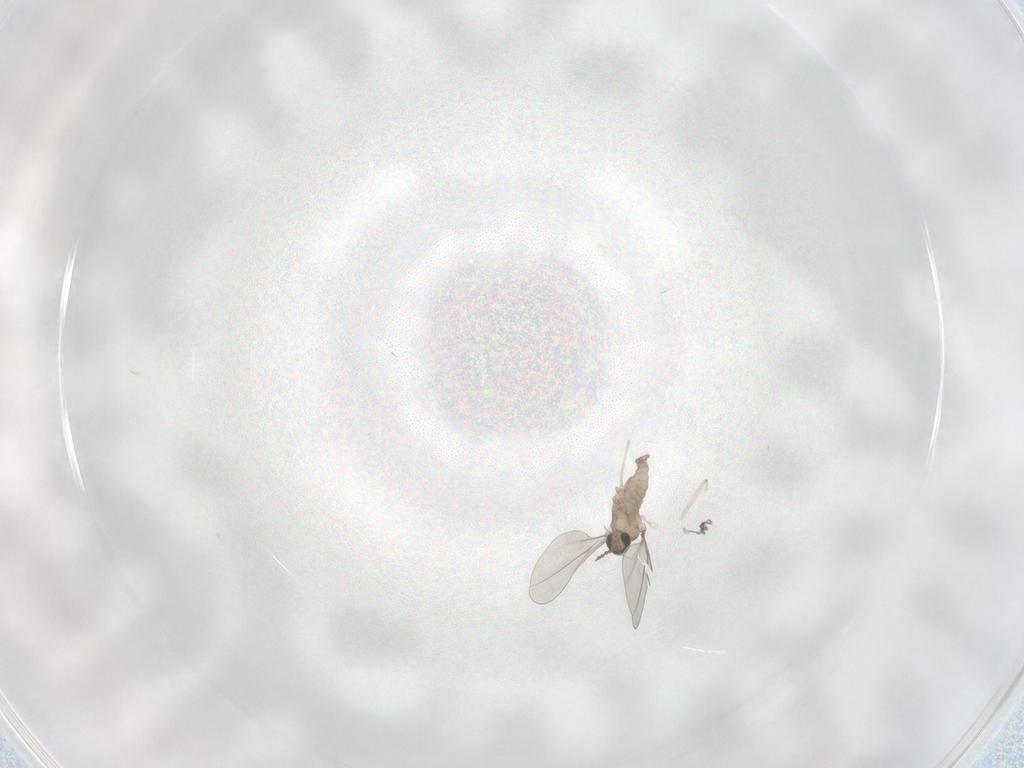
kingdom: Animalia
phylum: Arthropoda
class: Insecta
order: Diptera
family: Cecidomyiidae
